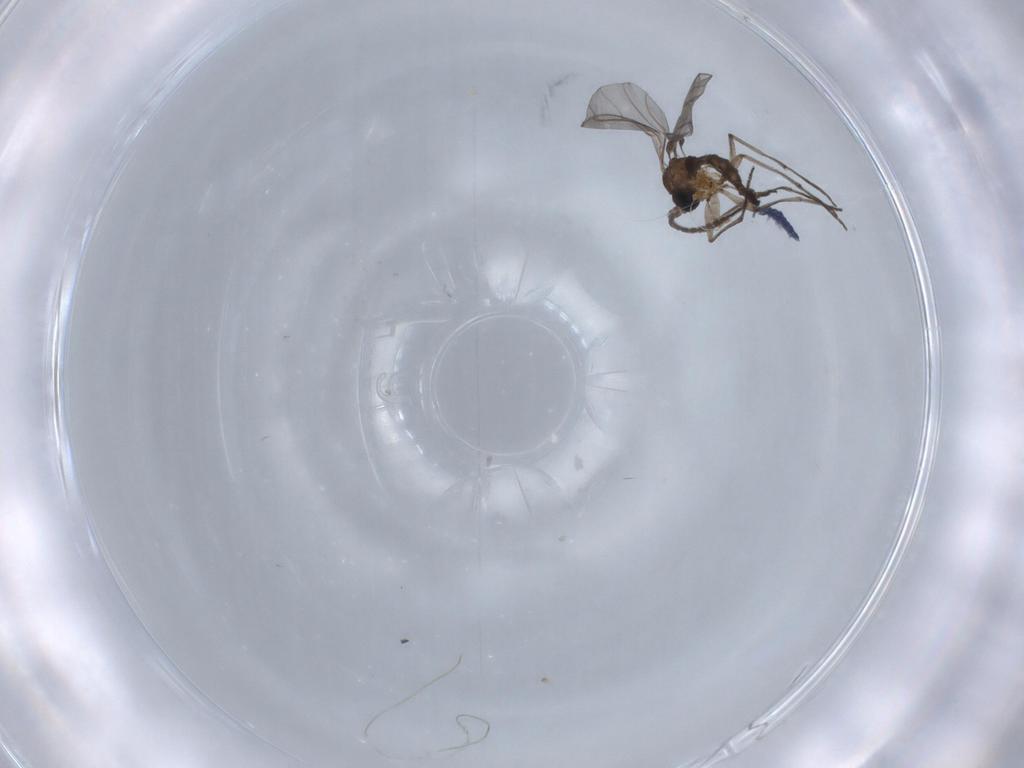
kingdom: Animalia
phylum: Arthropoda
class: Insecta
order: Diptera
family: Sciaridae
